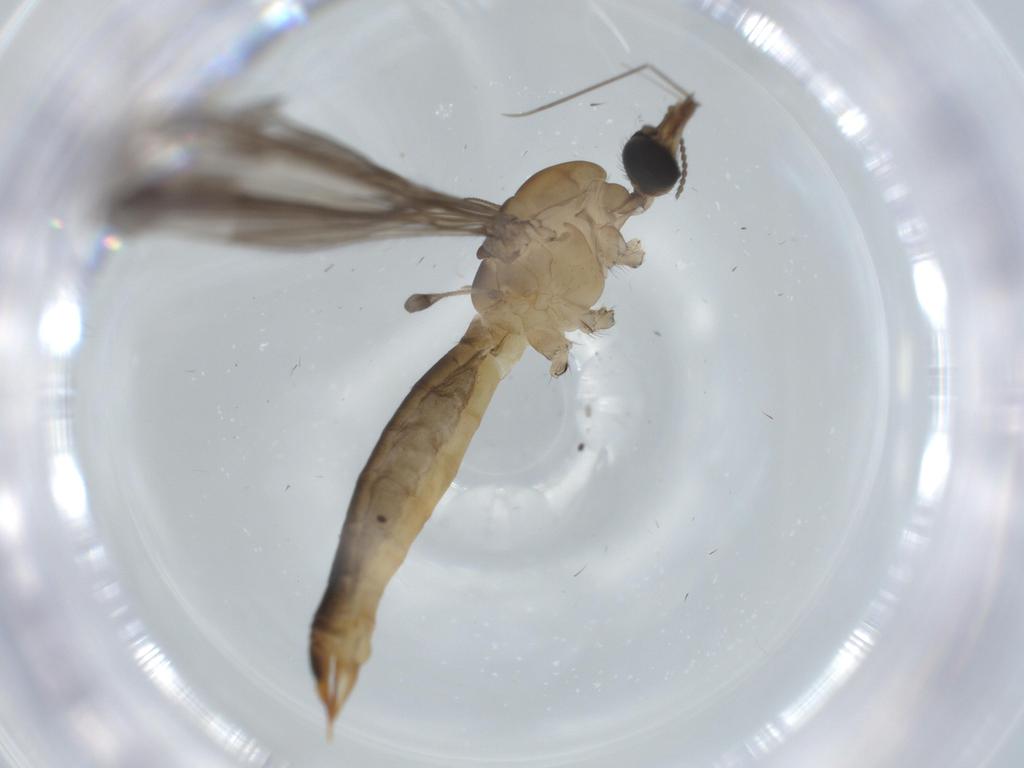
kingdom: Animalia
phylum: Arthropoda
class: Insecta
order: Diptera
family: Psychodidae
